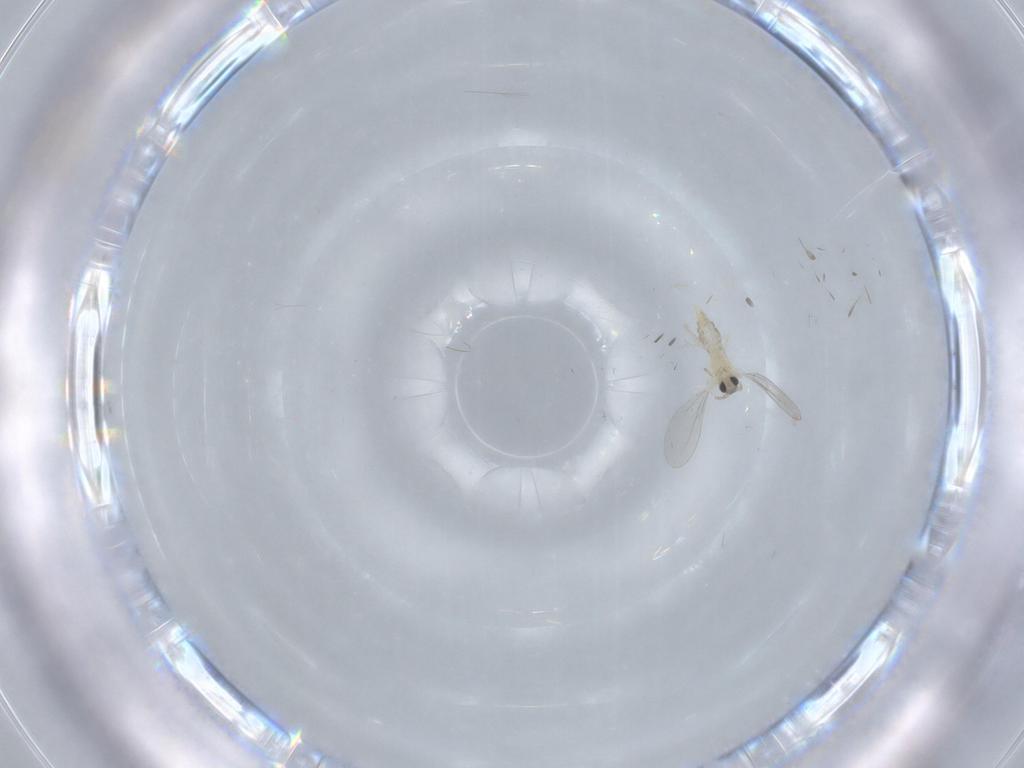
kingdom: Animalia
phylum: Arthropoda
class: Insecta
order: Diptera
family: Cecidomyiidae
